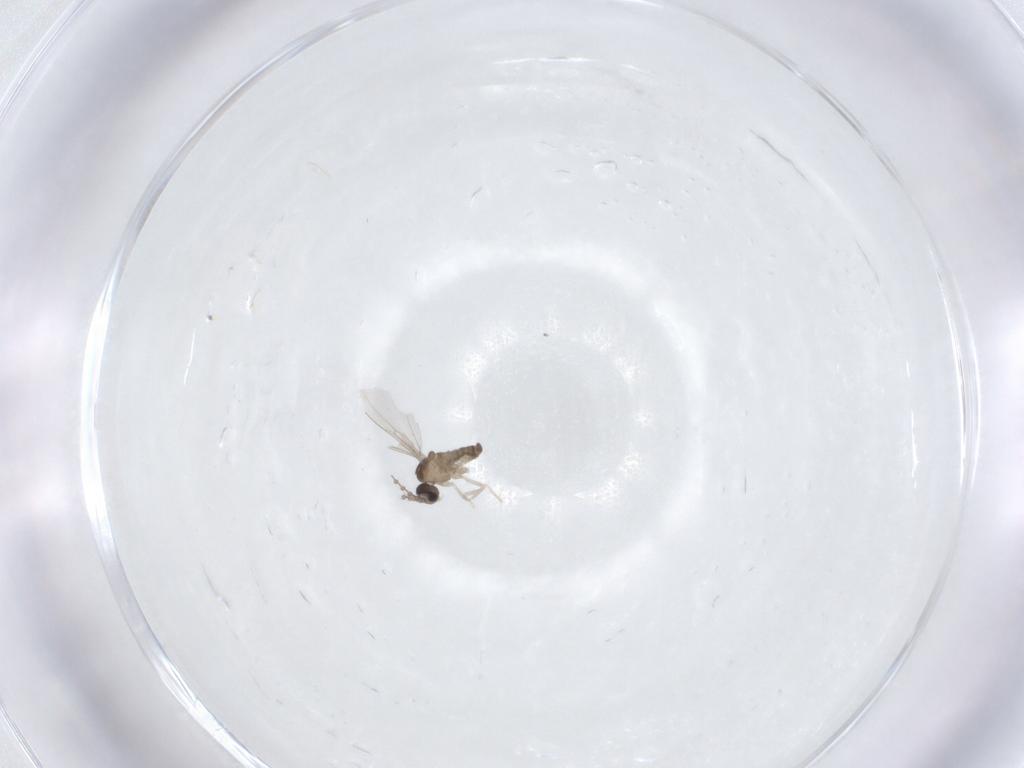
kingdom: Animalia
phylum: Arthropoda
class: Insecta
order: Diptera
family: Cecidomyiidae
